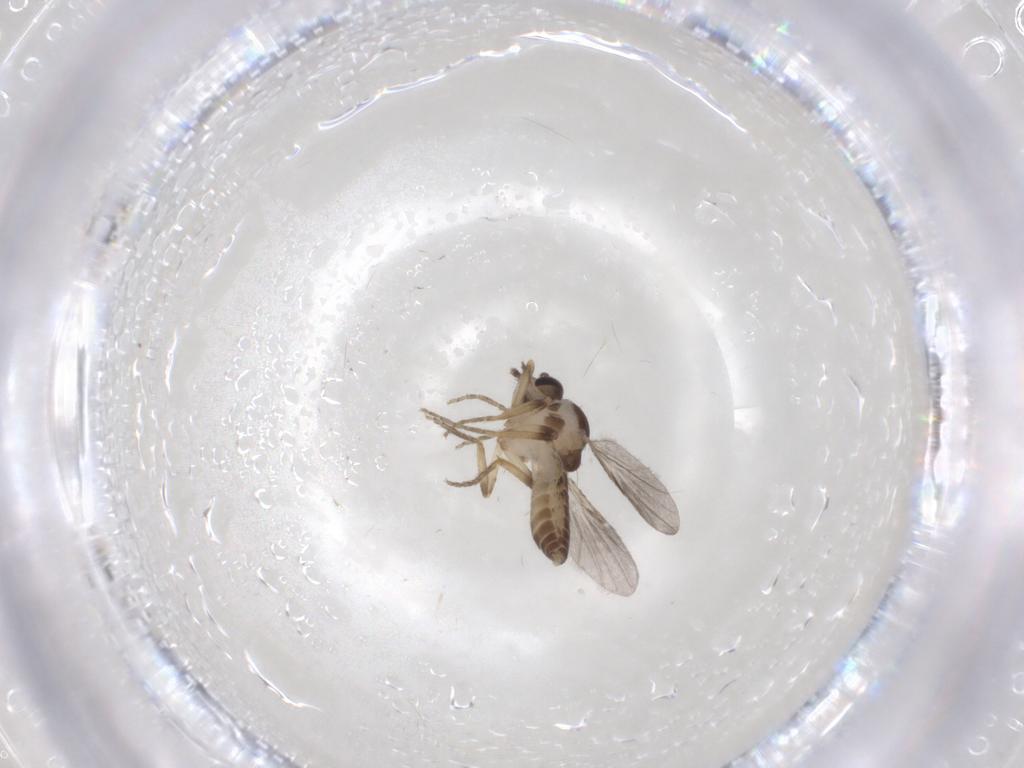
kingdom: Animalia
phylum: Arthropoda
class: Insecta
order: Diptera
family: Ceratopogonidae
